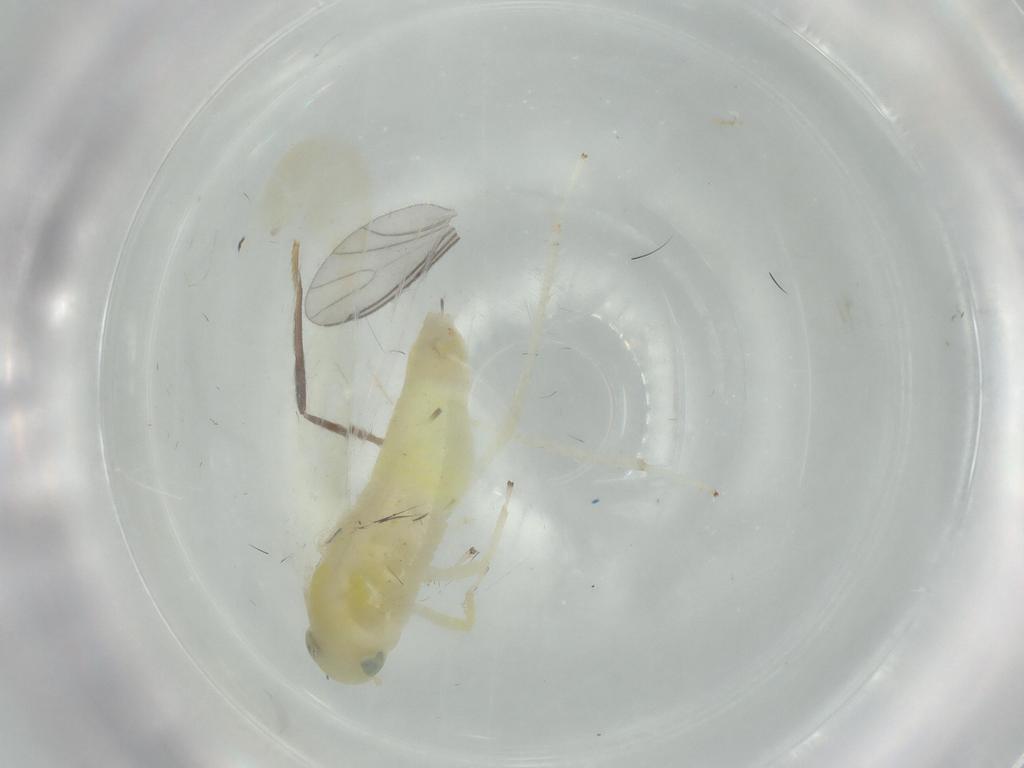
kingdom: Animalia
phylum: Arthropoda
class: Insecta
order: Hemiptera
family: Cicadellidae
